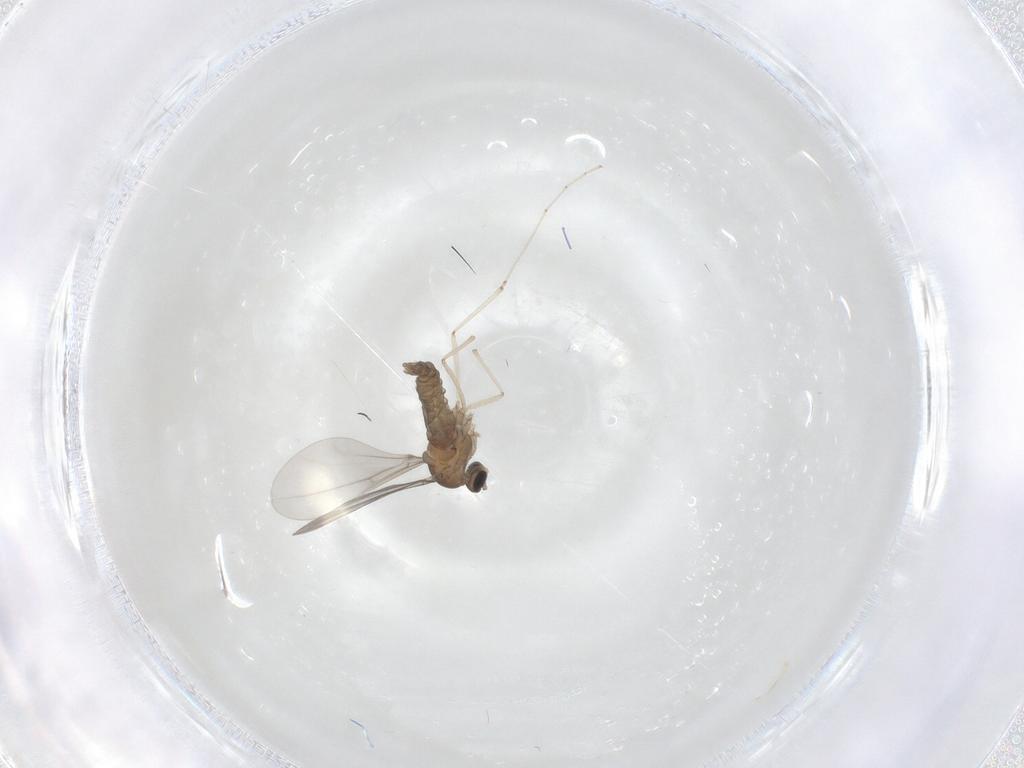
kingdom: Animalia
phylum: Arthropoda
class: Insecta
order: Diptera
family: Cecidomyiidae
